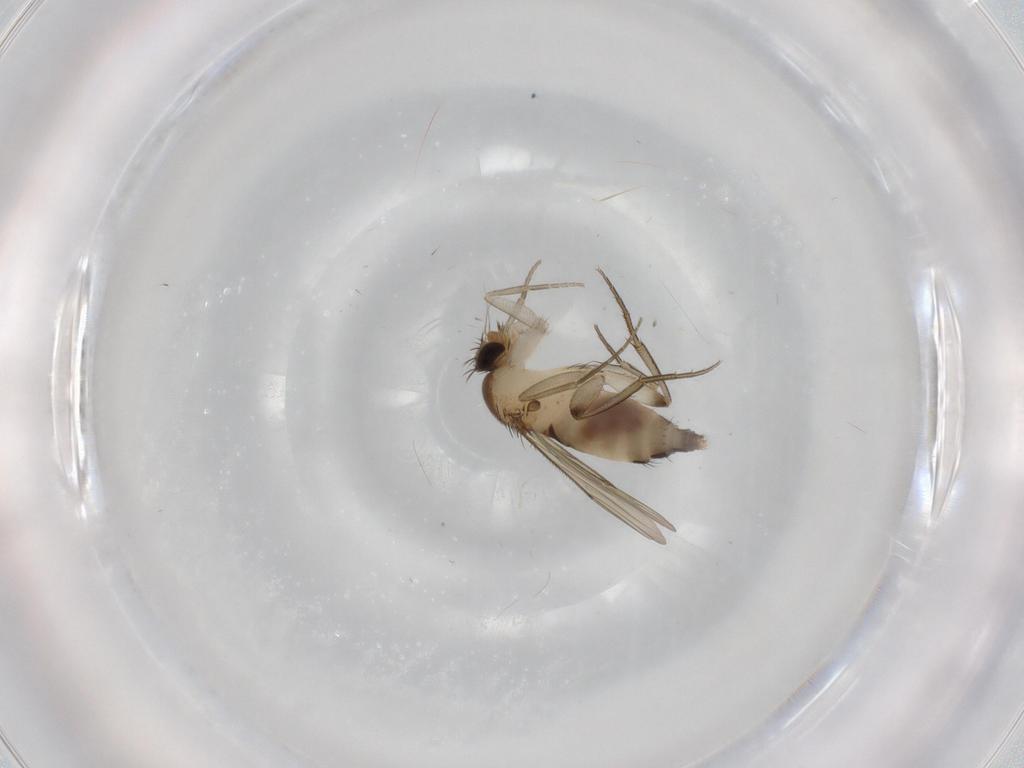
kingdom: Animalia
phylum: Arthropoda
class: Insecta
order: Diptera
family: Phoridae
